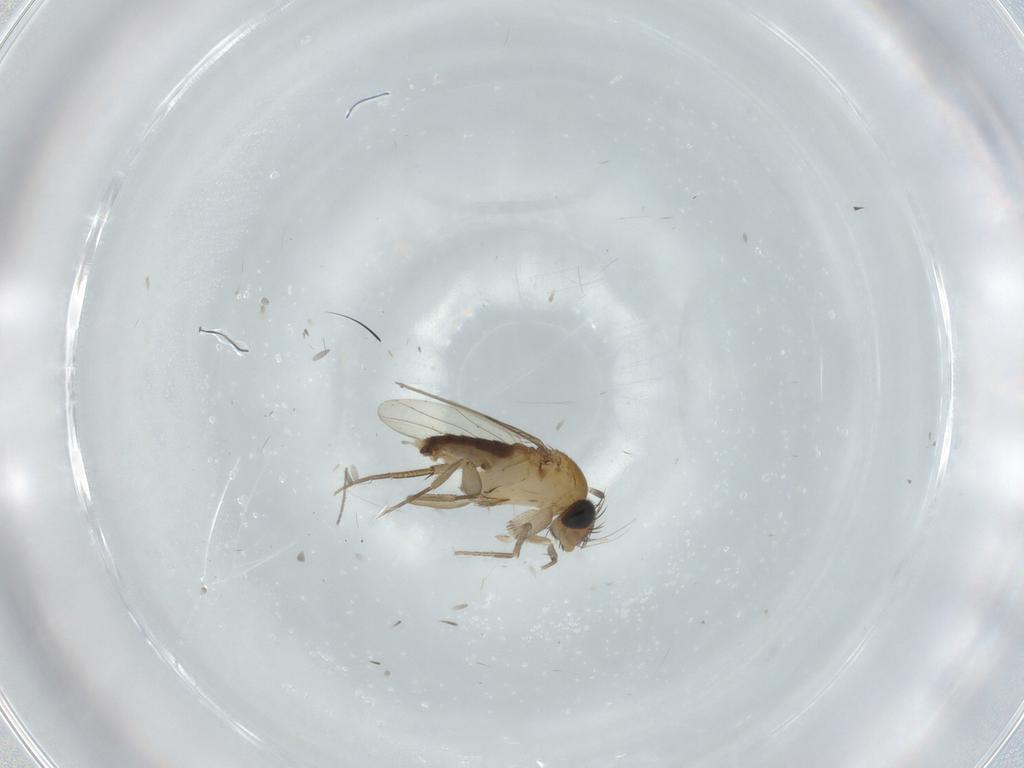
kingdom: Animalia
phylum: Arthropoda
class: Insecta
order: Diptera
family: Phoridae
